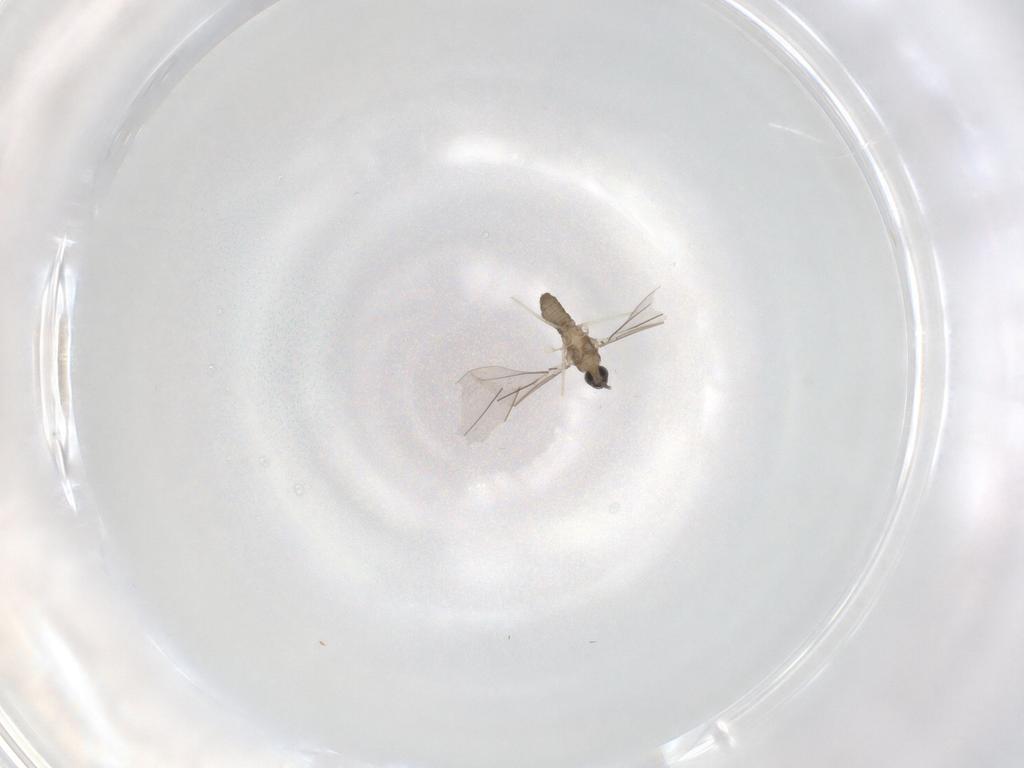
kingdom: Animalia
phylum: Arthropoda
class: Insecta
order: Diptera
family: Cecidomyiidae
